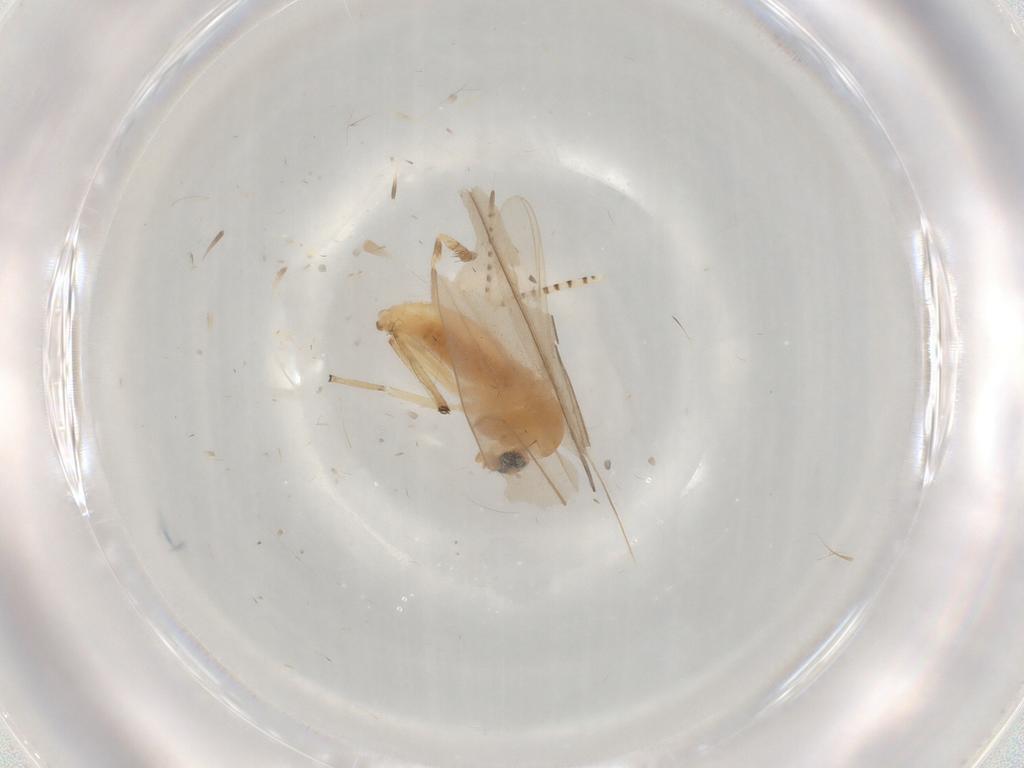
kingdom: Animalia
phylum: Arthropoda
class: Insecta
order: Diptera
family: Chironomidae
